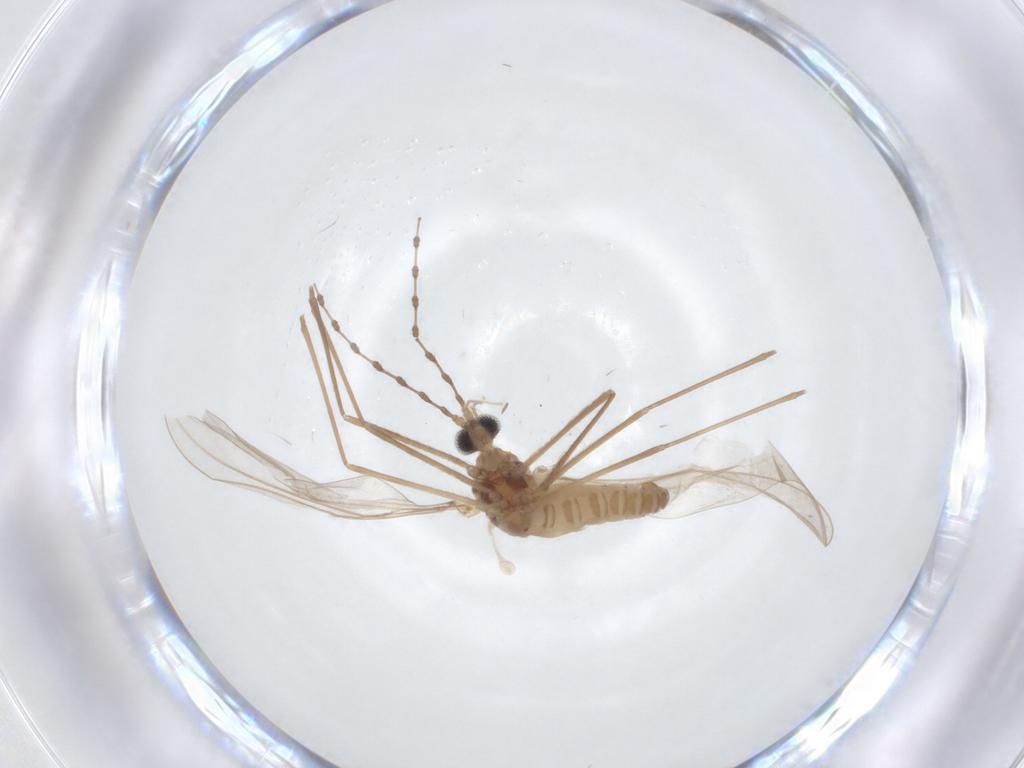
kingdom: Animalia
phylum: Arthropoda
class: Insecta
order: Diptera
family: Cecidomyiidae
